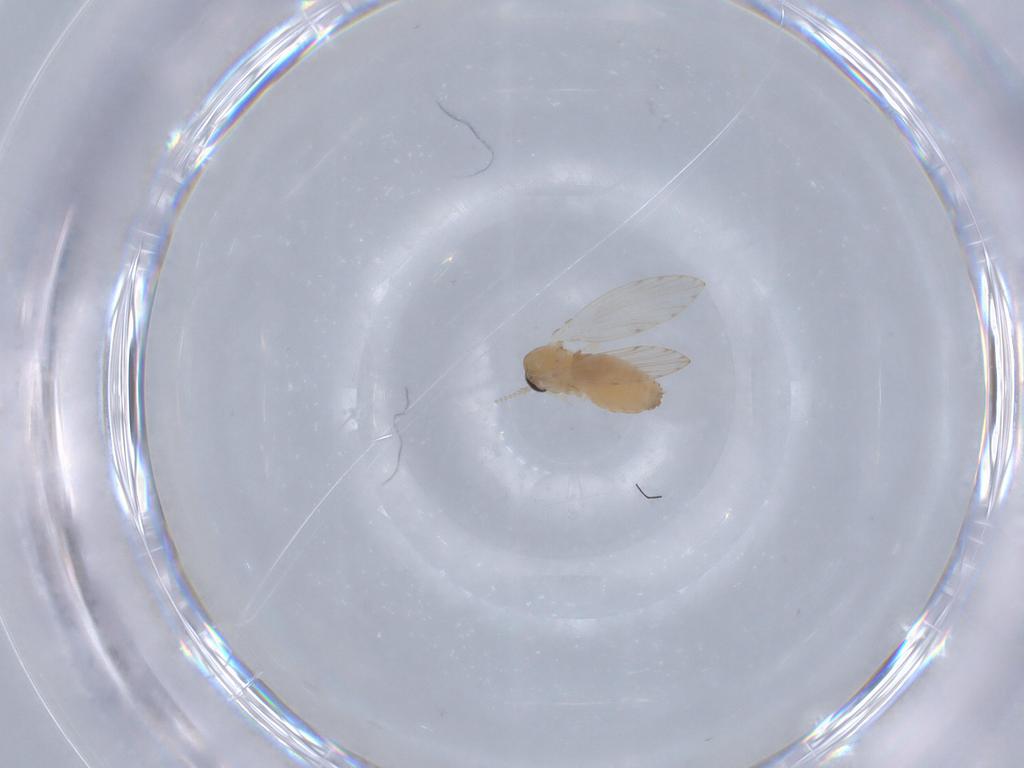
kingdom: Animalia
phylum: Arthropoda
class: Insecta
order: Diptera
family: Psychodidae
